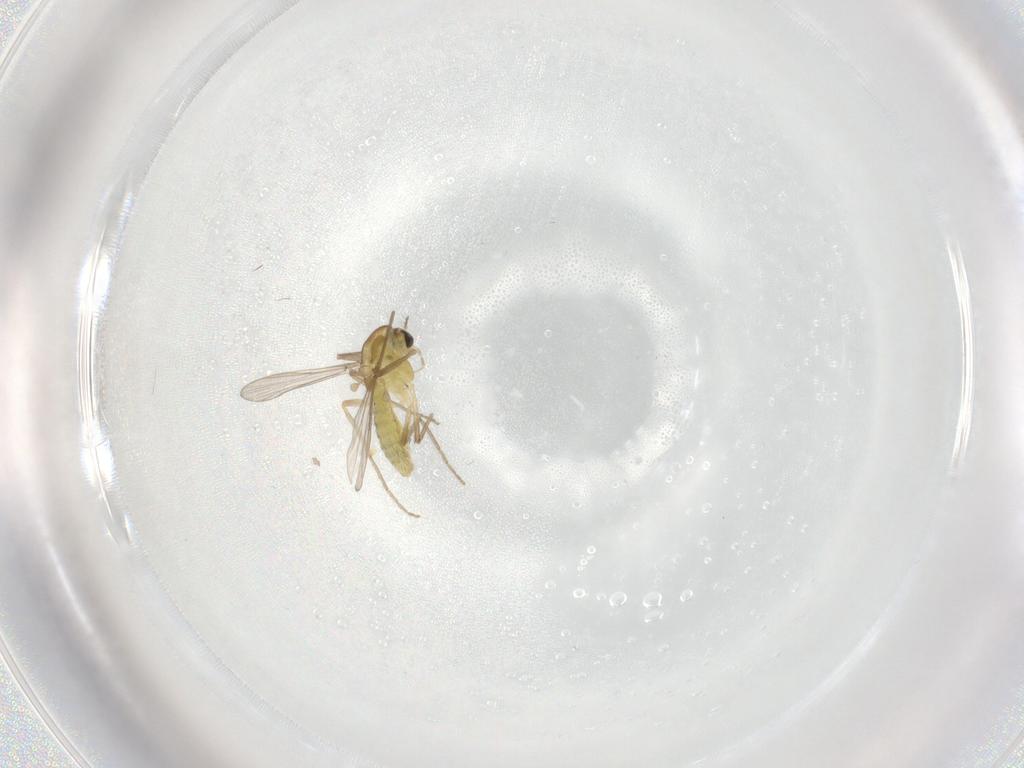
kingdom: Animalia
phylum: Arthropoda
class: Insecta
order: Diptera
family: Chironomidae
